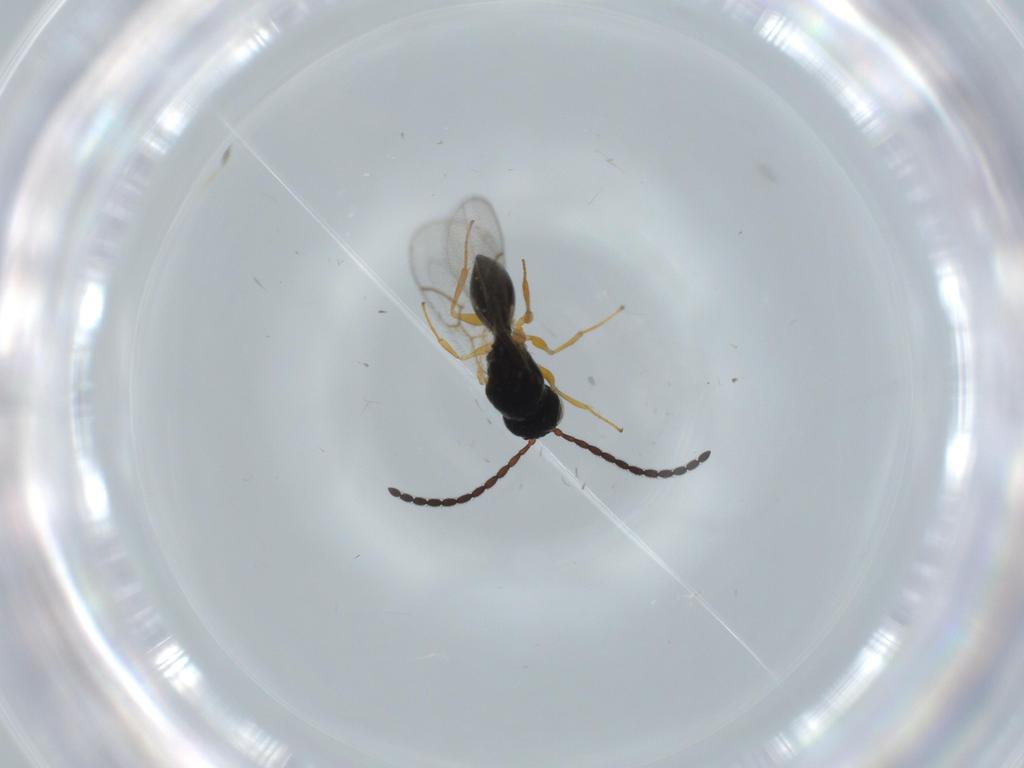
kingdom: Animalia
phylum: Arthropoda
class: Insecta
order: Hymenoptera
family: Figitidae
